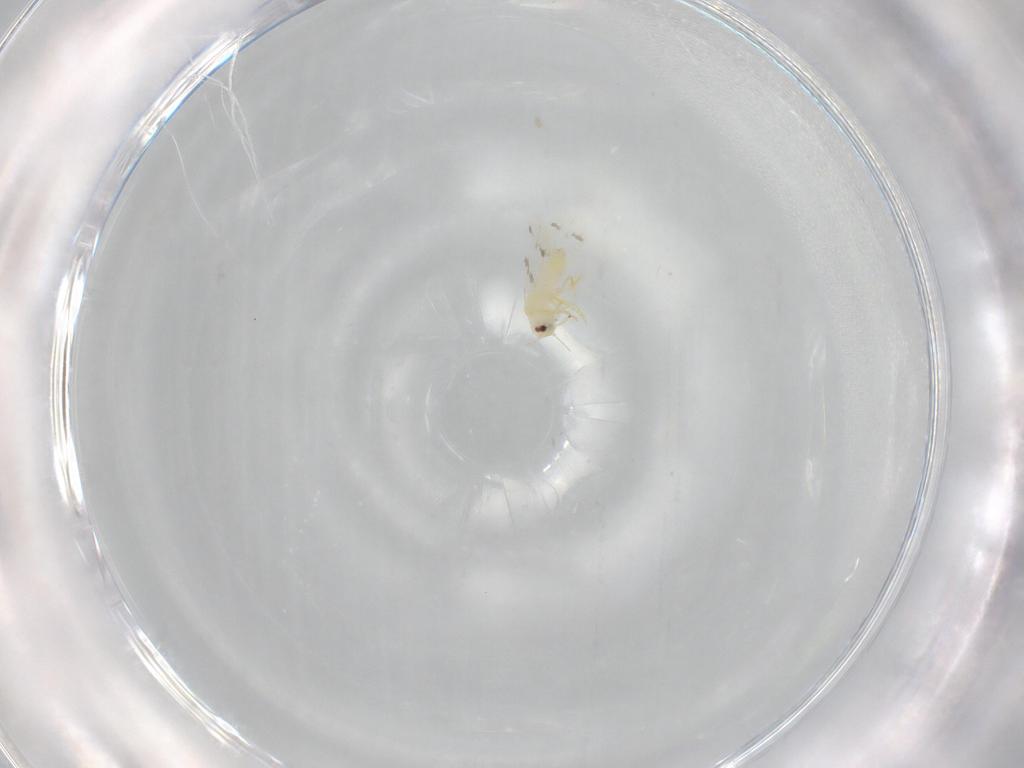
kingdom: Animalia
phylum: Arthropoda
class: Insecta
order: Hemiptera
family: Aleyrodidae
